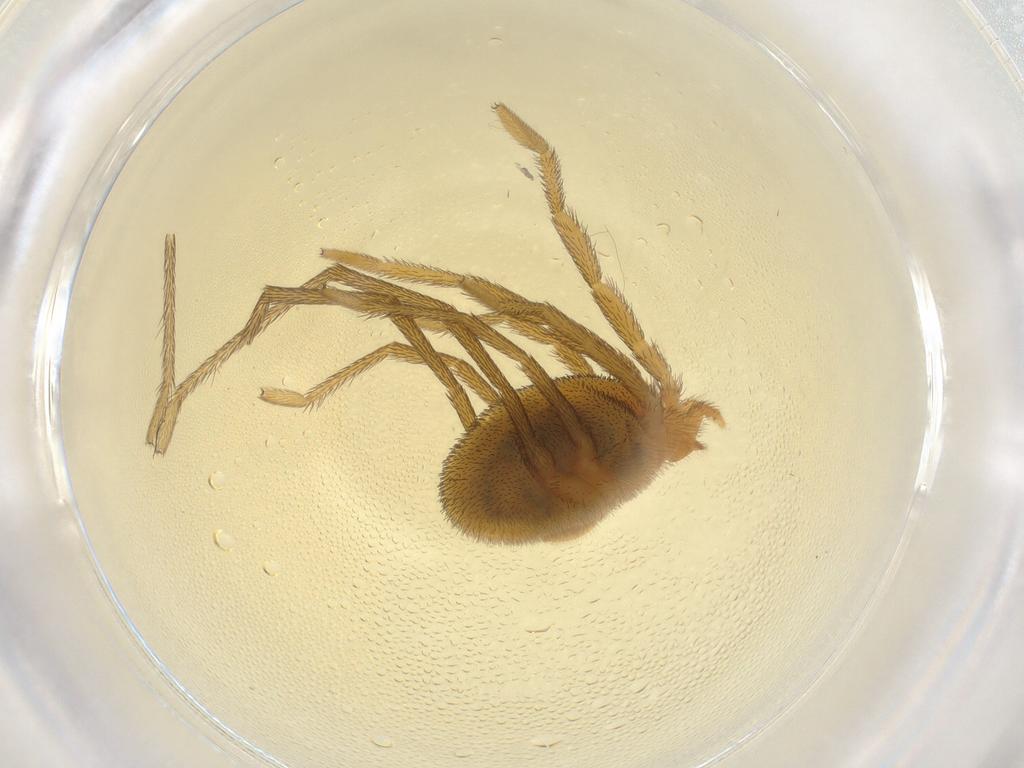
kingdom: Animalia
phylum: Arthropoda
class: Arachnida
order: Trombidiformes
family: Erythraeidae
